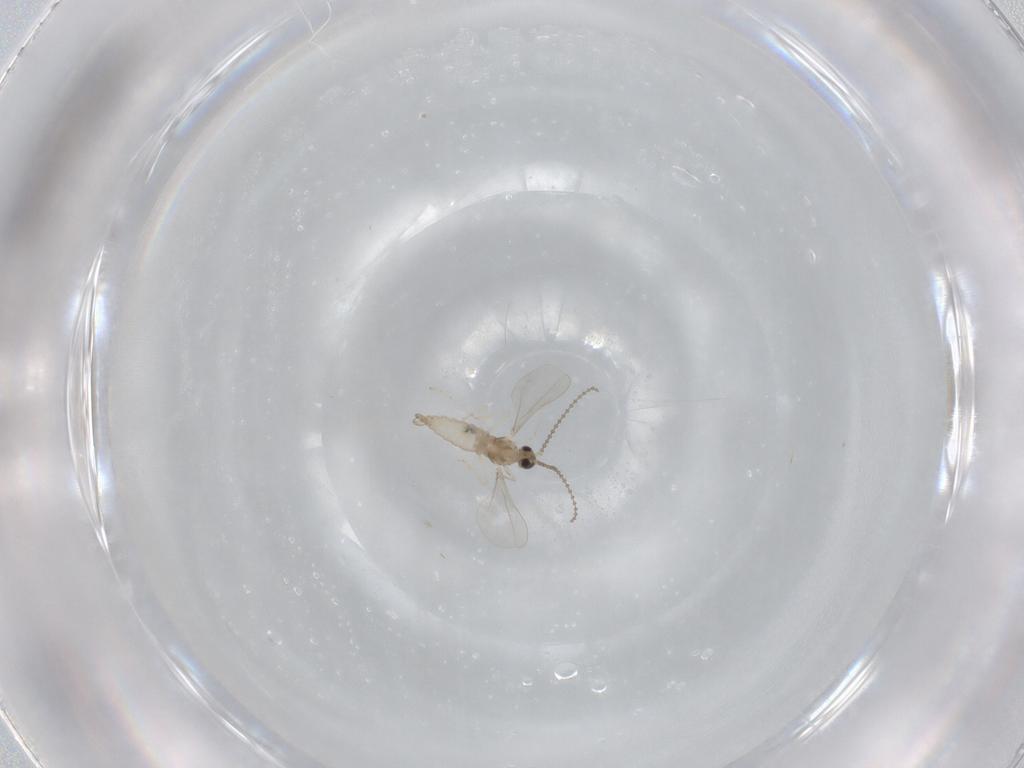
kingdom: Animalia
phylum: Arthropoda
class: Insecta
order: Diptera
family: Cecidomyiidae
